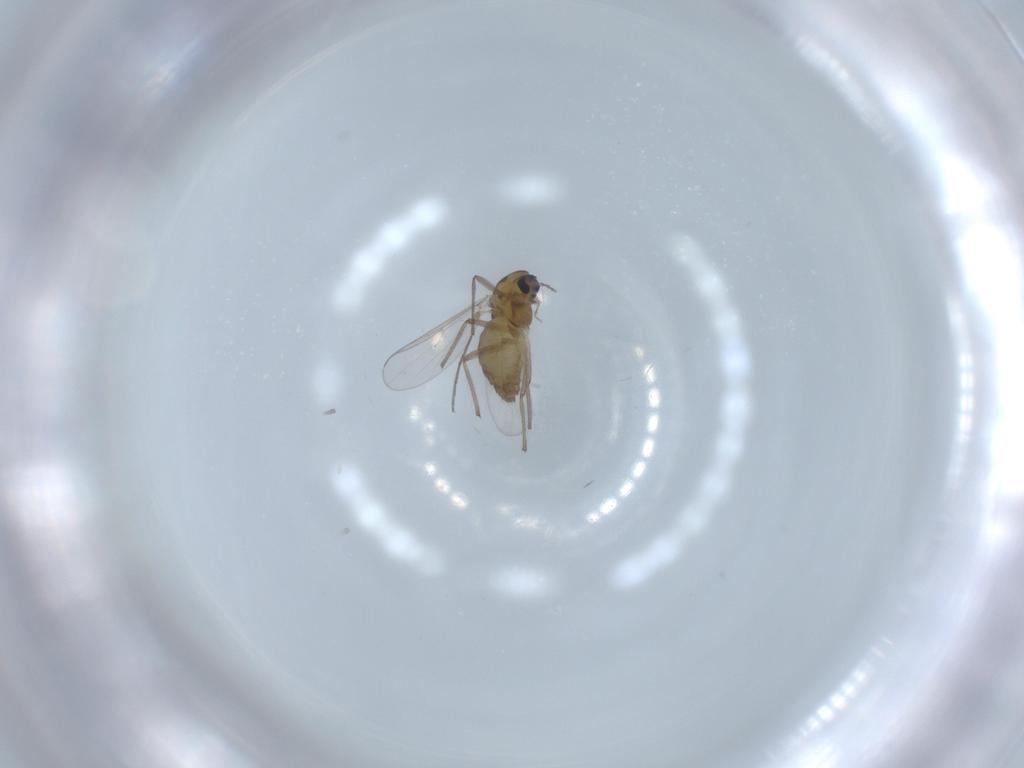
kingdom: Animalia
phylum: Arthropoda
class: Insecta
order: Diptera
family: Chironomidae
